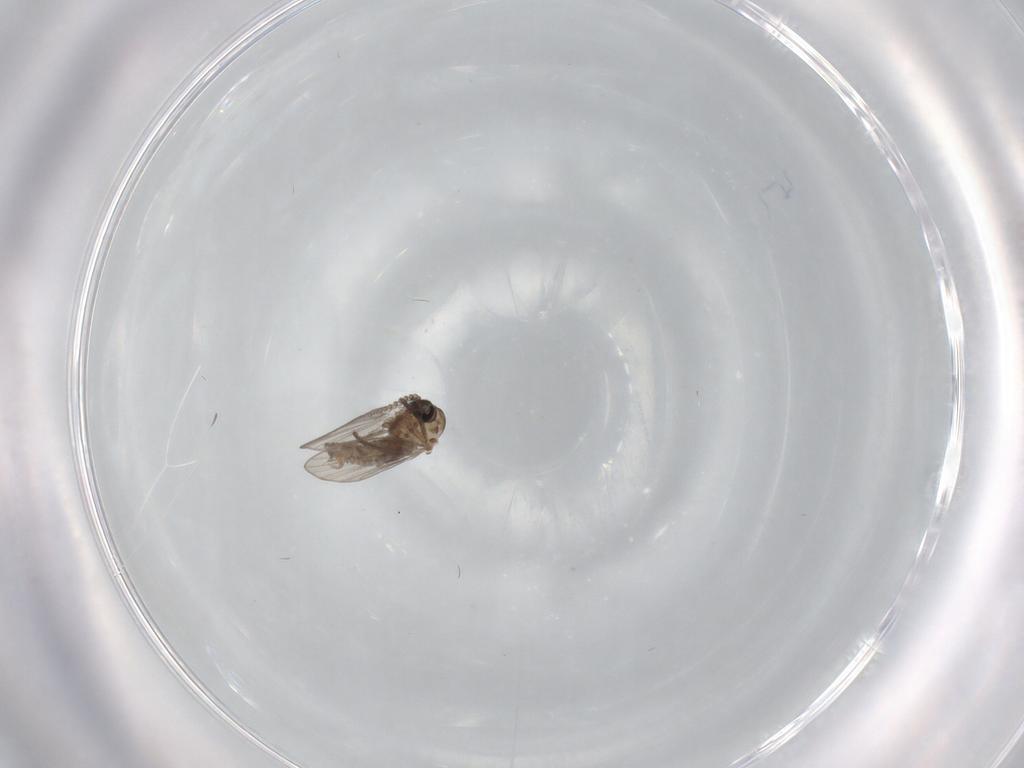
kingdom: Animalia
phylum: Arthropoda
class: Insecta
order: Diptera
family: Psychodidae
